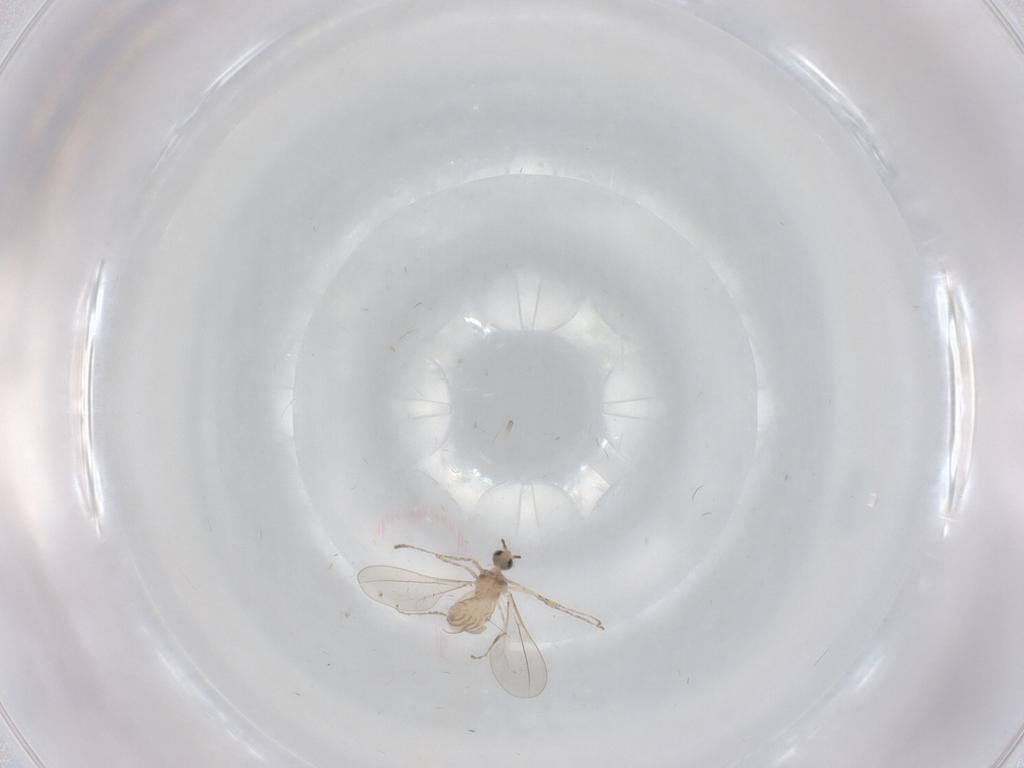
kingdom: Animalia
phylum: Arthropoda
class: Insecta
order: Diptera
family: Cecidomyiidae
